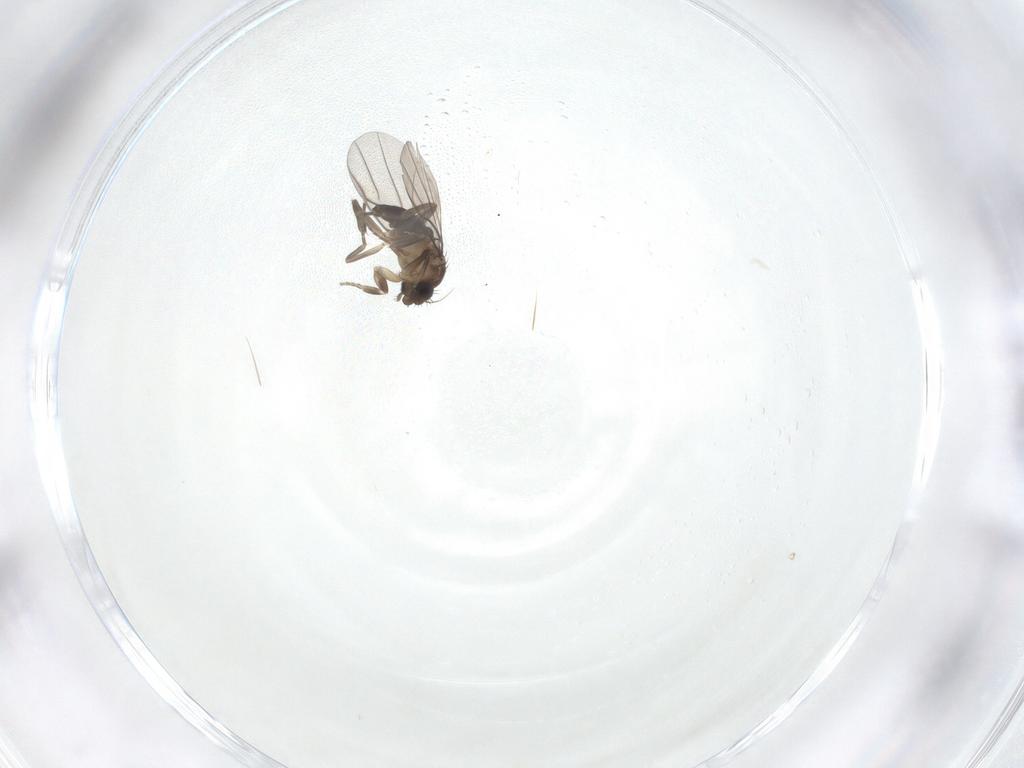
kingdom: Animalia
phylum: Arthropoda
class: Insecta
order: Diptera
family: Phoridae
